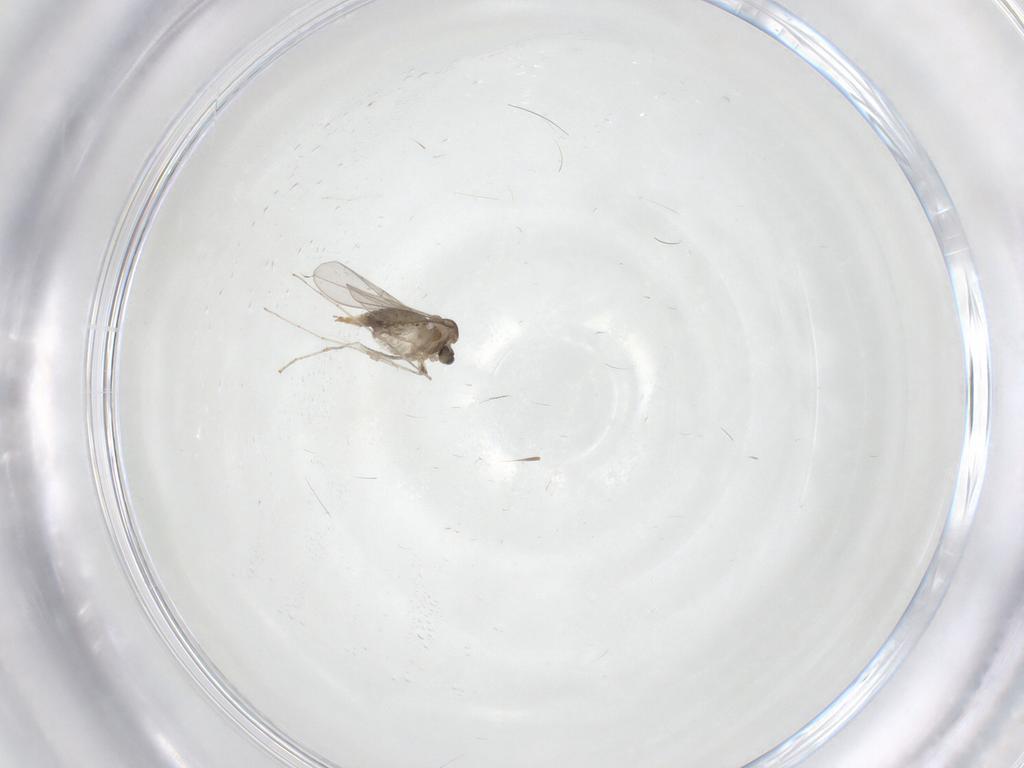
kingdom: Animalia
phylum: Arthropoda
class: Insecta
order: Diptera
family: Cecidomyiidae
